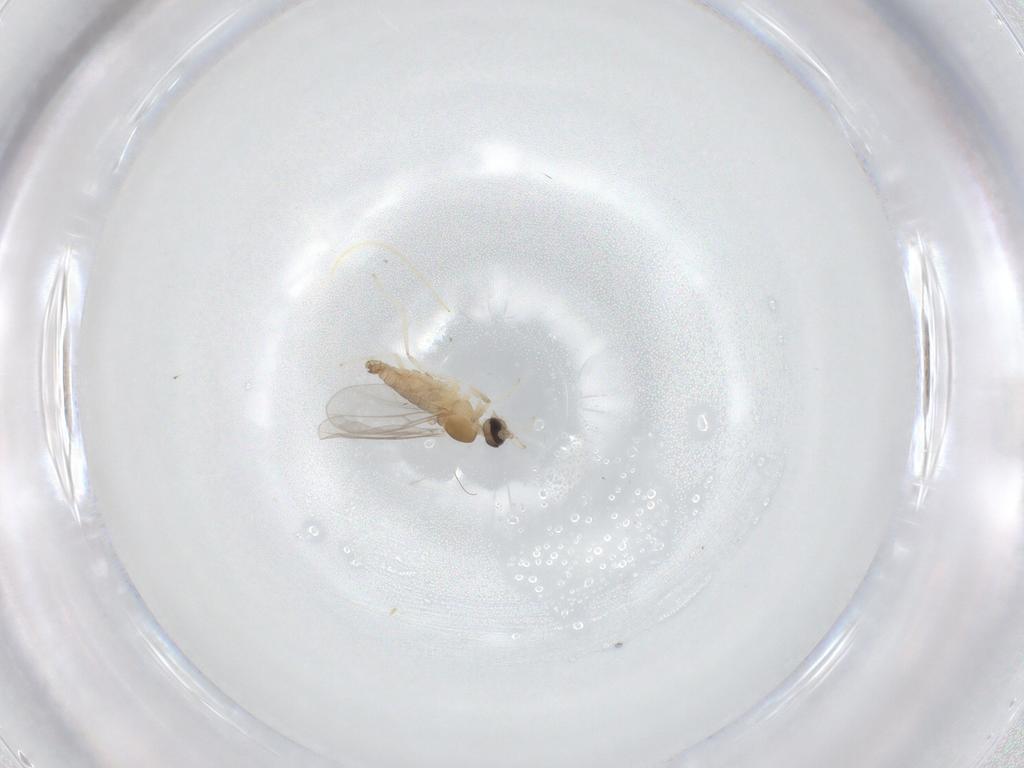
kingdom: Animalia
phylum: Arthropoda
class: Insecta
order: Diptera
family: Cecidomyiidae
